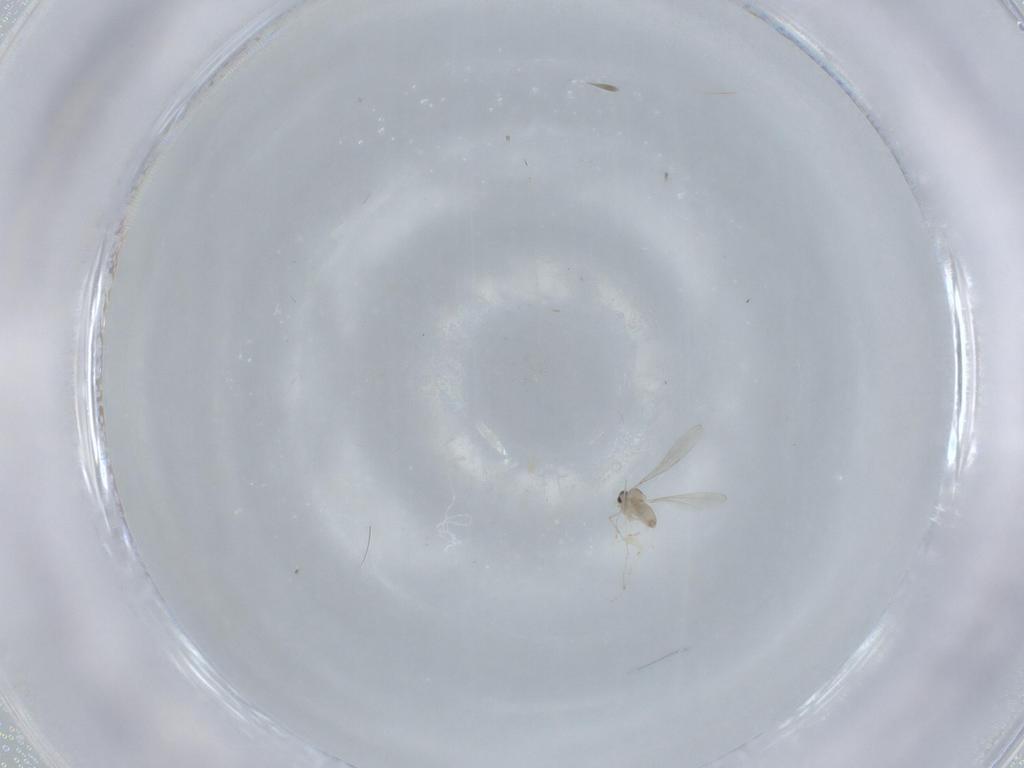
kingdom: Animalia
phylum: Arthropoda
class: Insecta
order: Diptera
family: Cecidomyiidae
